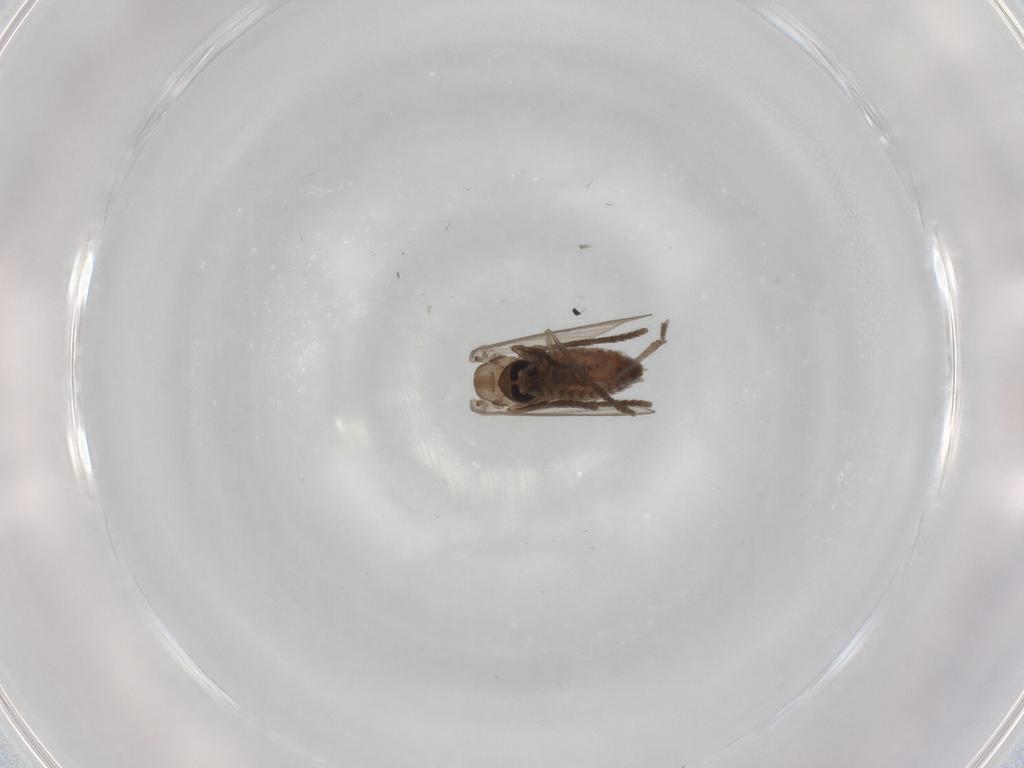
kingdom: Animalia
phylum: Arthropoda
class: Insecta
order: Diptera
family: Psychodidae
